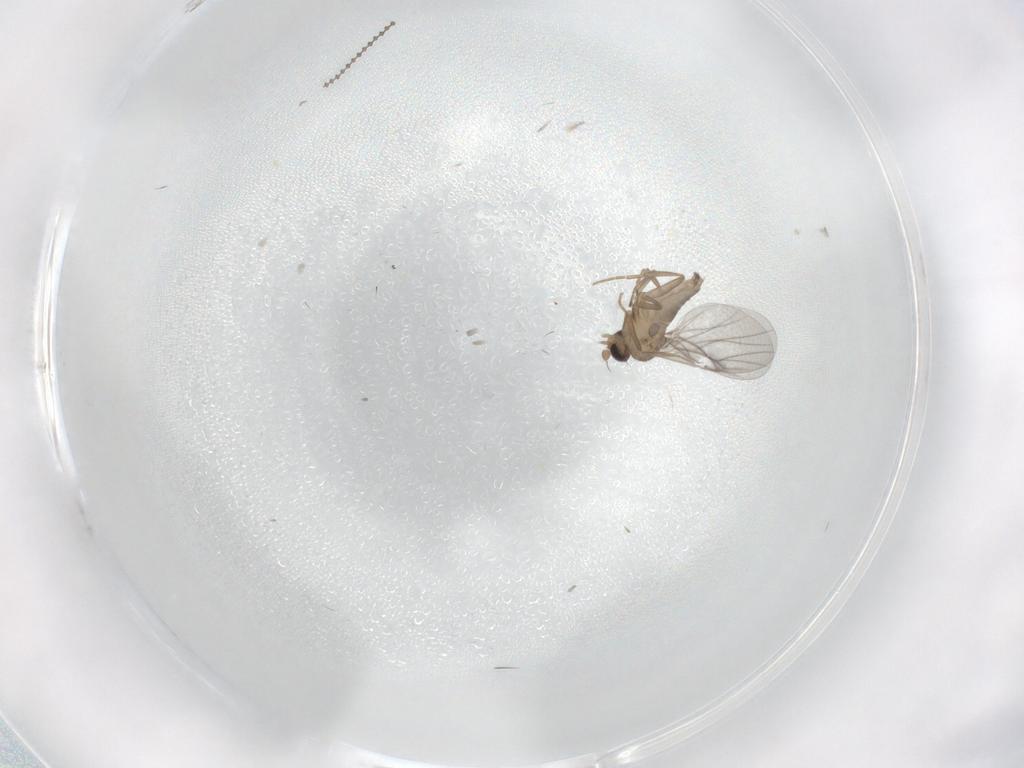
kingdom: Animalia
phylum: Arthropoda
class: Insecta
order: Diptera
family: Cecidomyiidae
